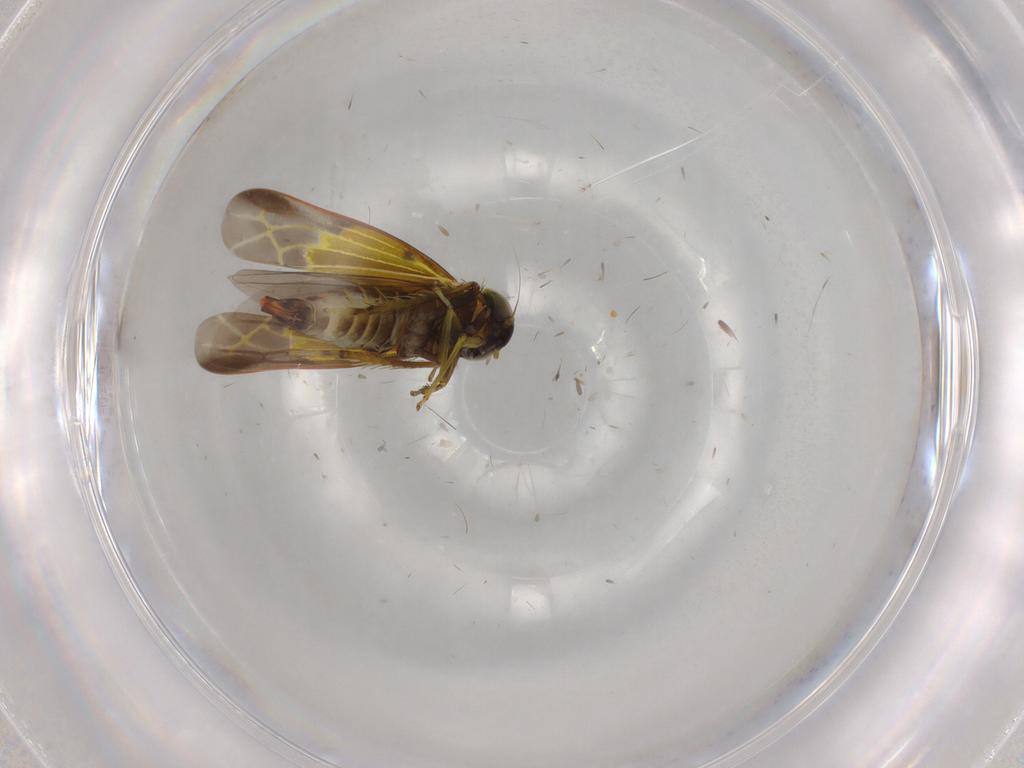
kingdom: Animalia
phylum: Arthropoda
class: Insecta
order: Hemiptera
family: Cicadellidae
